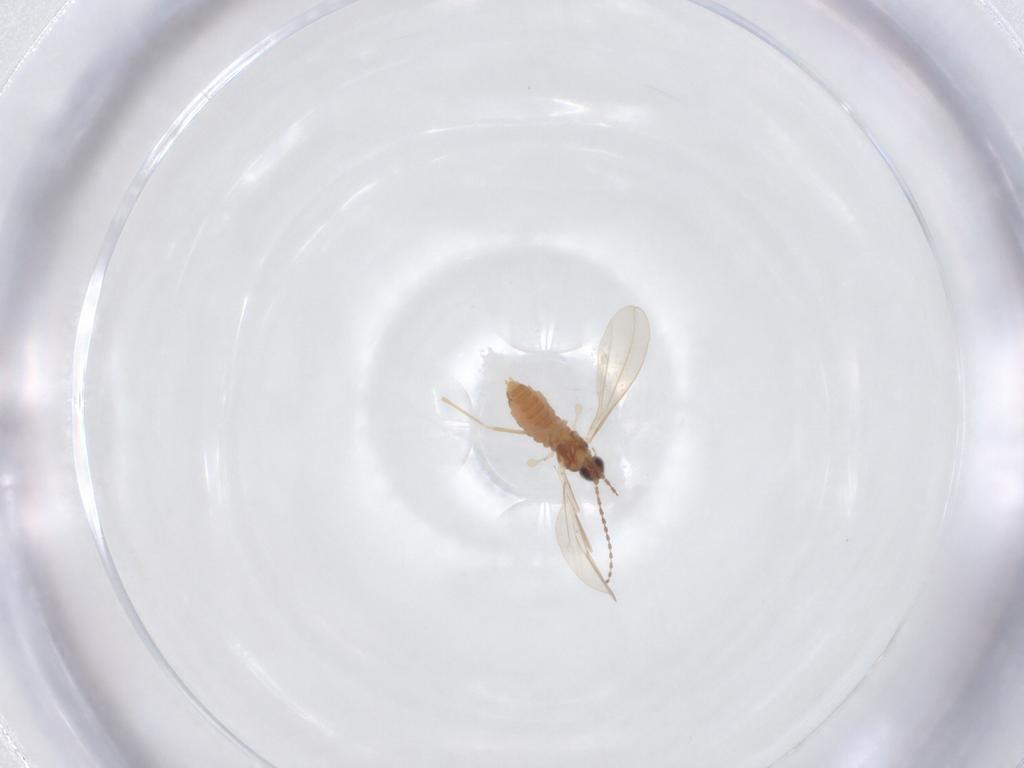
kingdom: Animalia
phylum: Arthropoda
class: Insecta
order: Diptera
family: Cecidomyiidae
